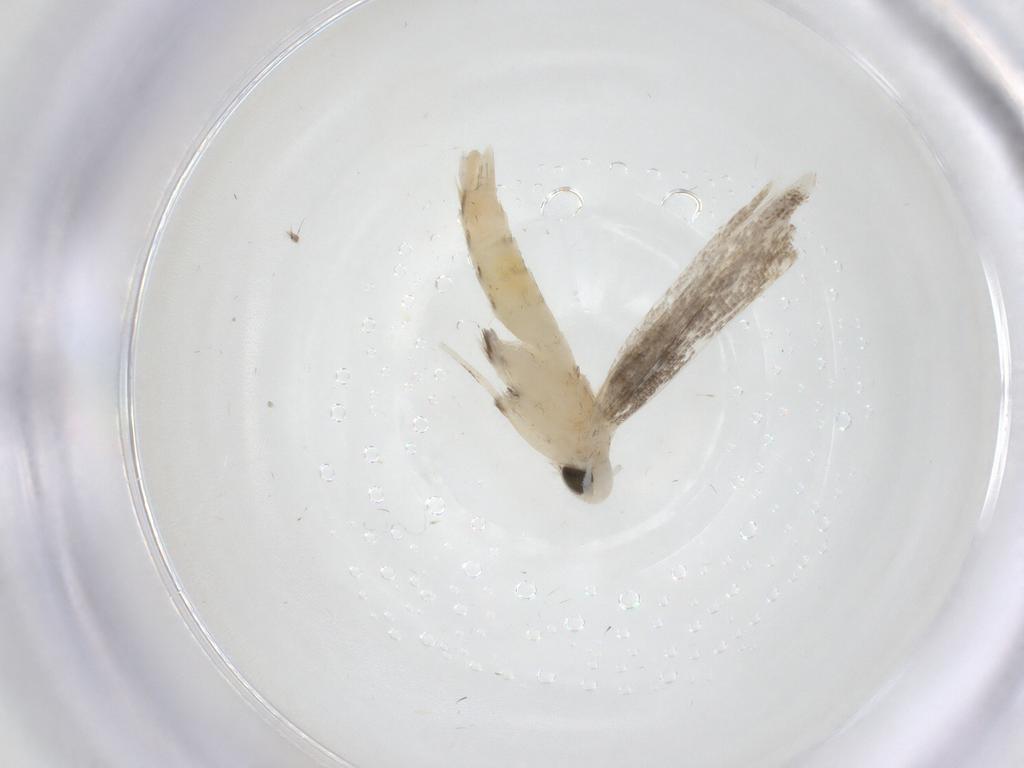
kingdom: Animalia
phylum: Arthropoda
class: Insecta
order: Lepidoptera
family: Gracillariidae
